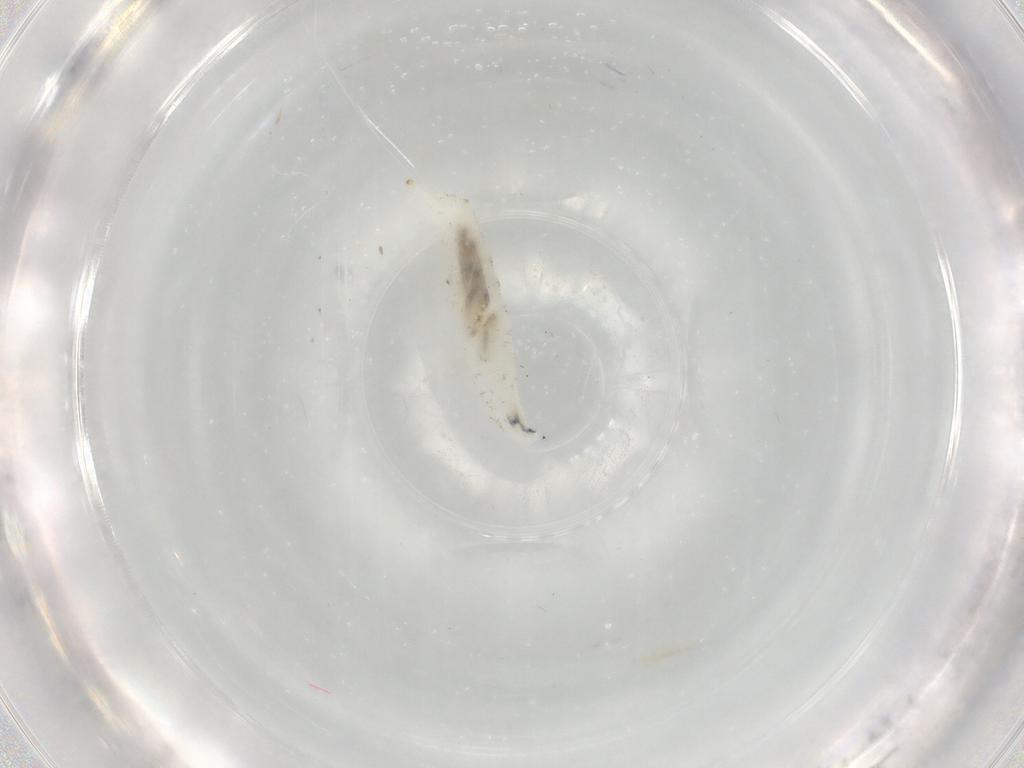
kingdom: Animalia
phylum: Arthropoda
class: Insecta
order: Diptera
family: Drosophilidae
